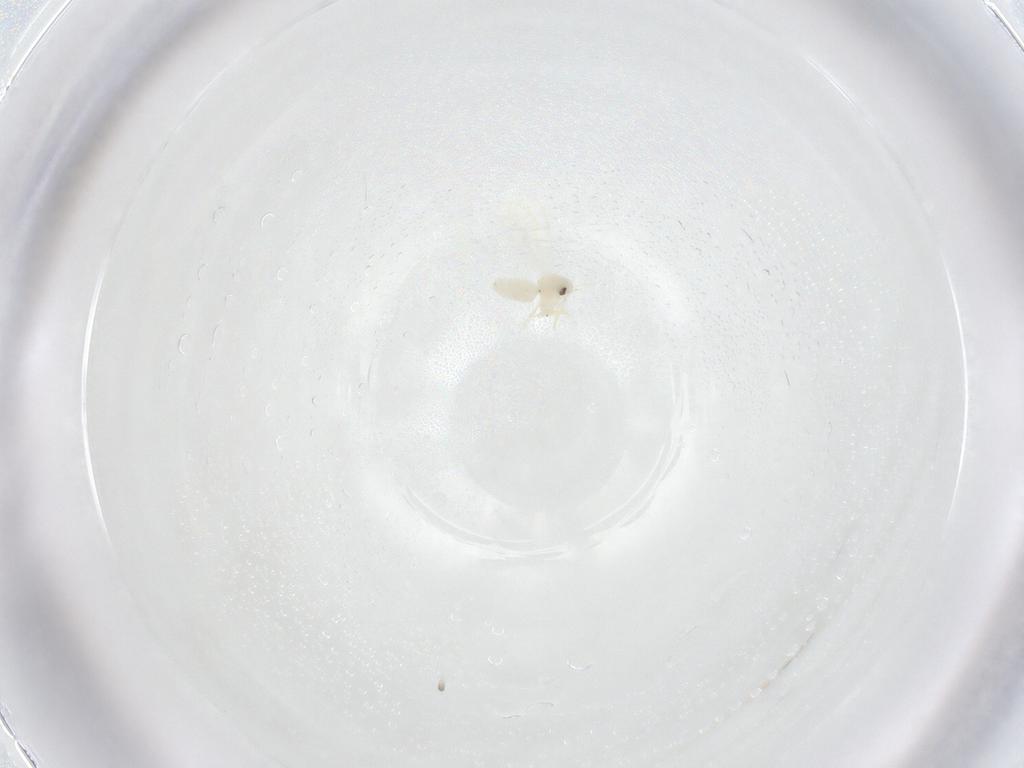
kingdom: Animalia
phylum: Arthropoda
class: Insecta
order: Hemiptera
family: Aleyrodidae
